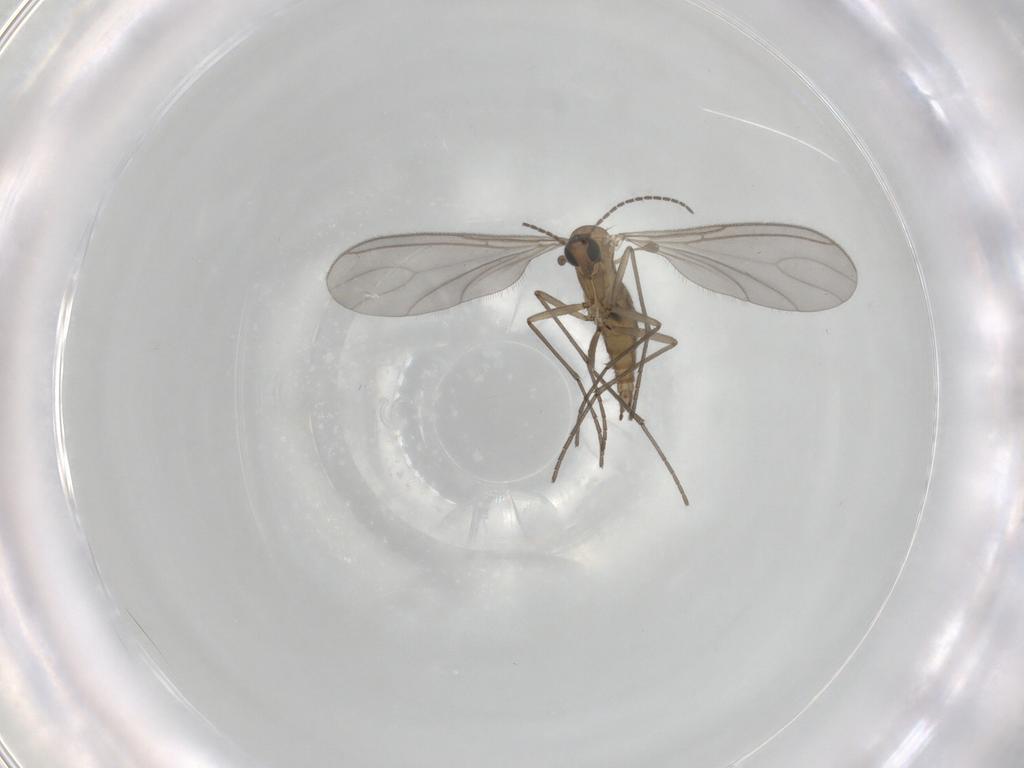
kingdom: Animalia
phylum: Arthropoda
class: Insecta
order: Diptera
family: Sciaridae
